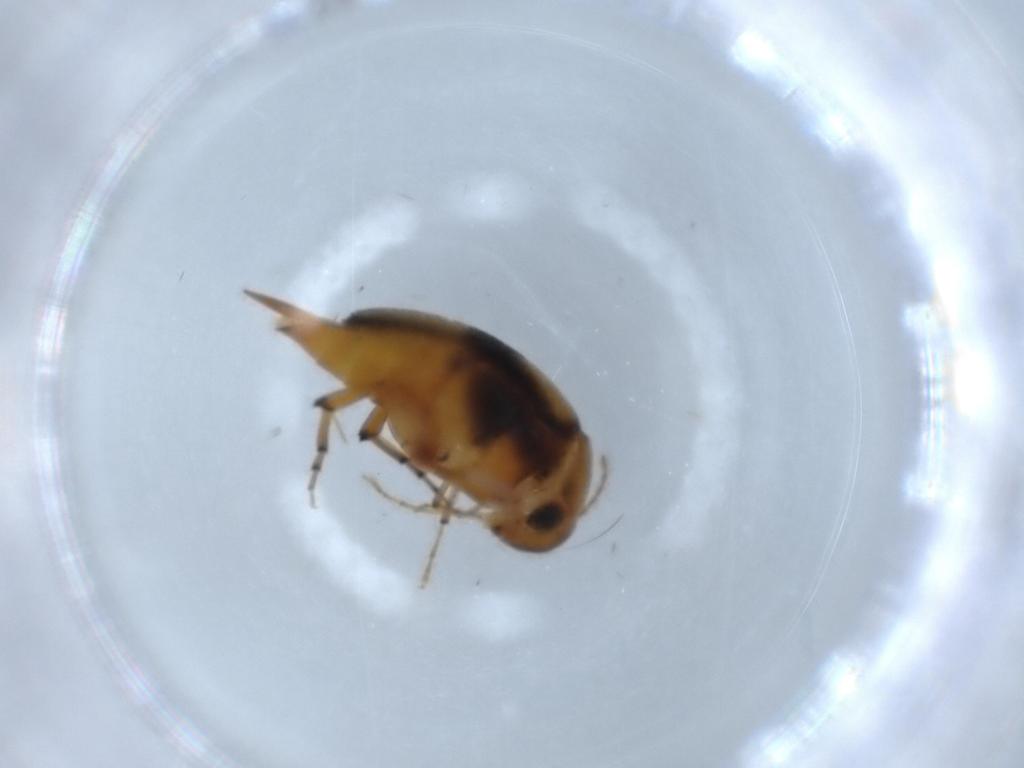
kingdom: Animalia
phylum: Arthropoda
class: Insecta
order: Coleoptera
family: Mordellidae
